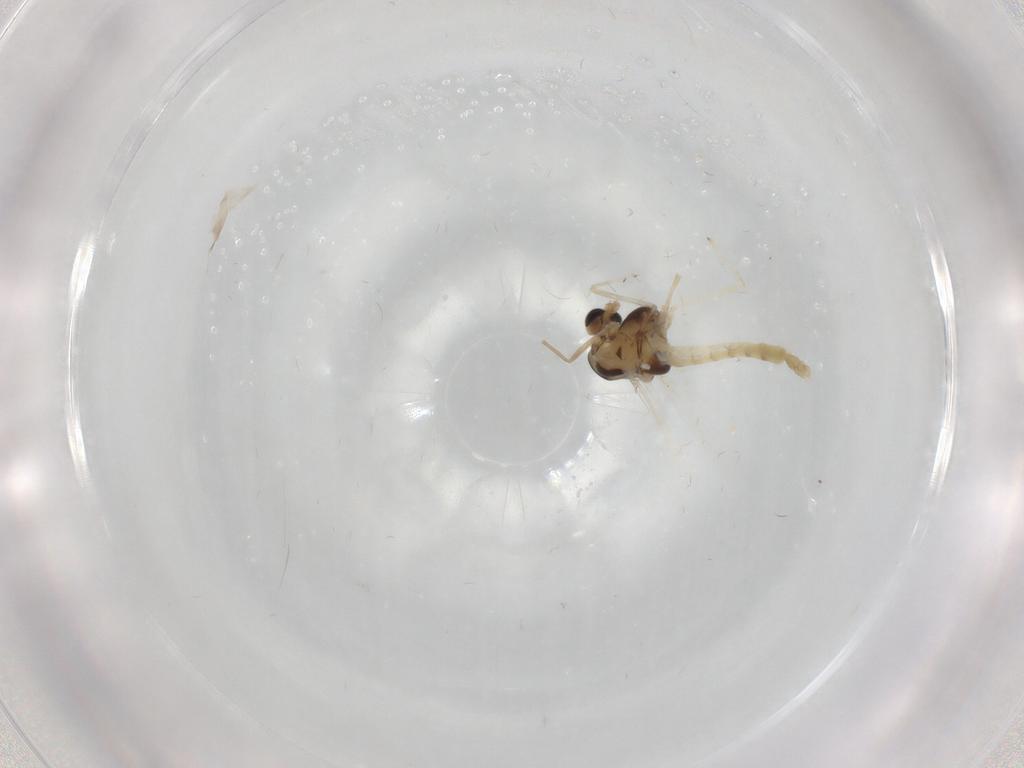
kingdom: Animalia
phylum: Arthropoda
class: Insecta
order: Diptera
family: Chironomidae
